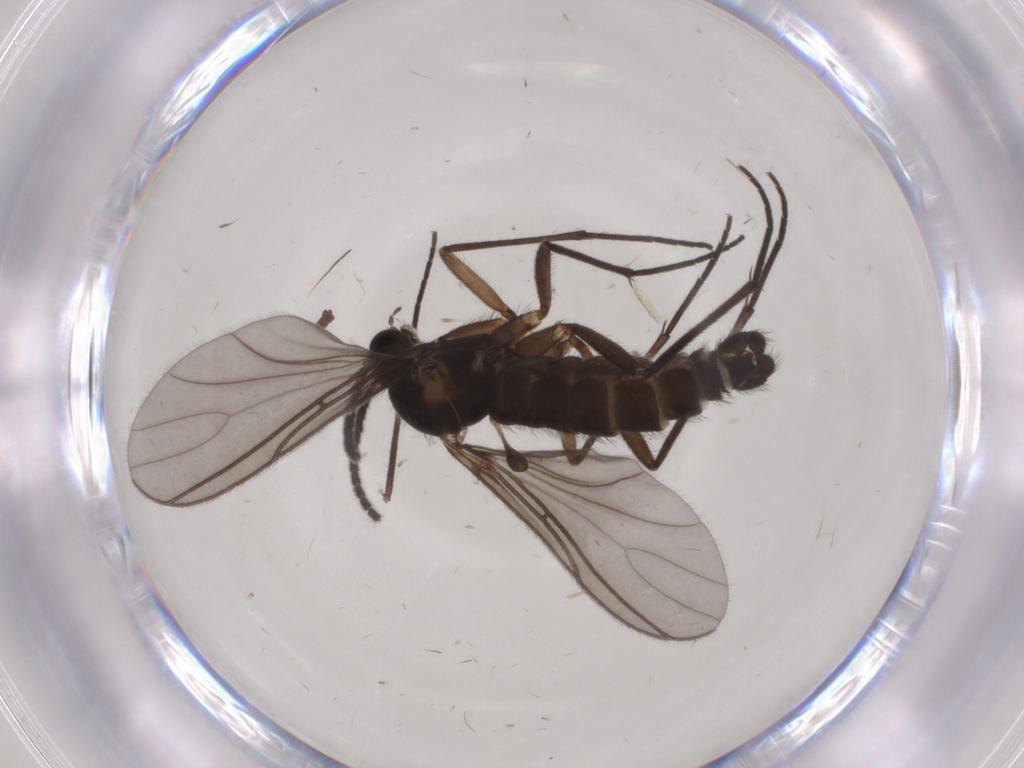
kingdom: Animalia
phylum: Arthropoda
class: Insecta
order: Diptera
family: Sciaridae
